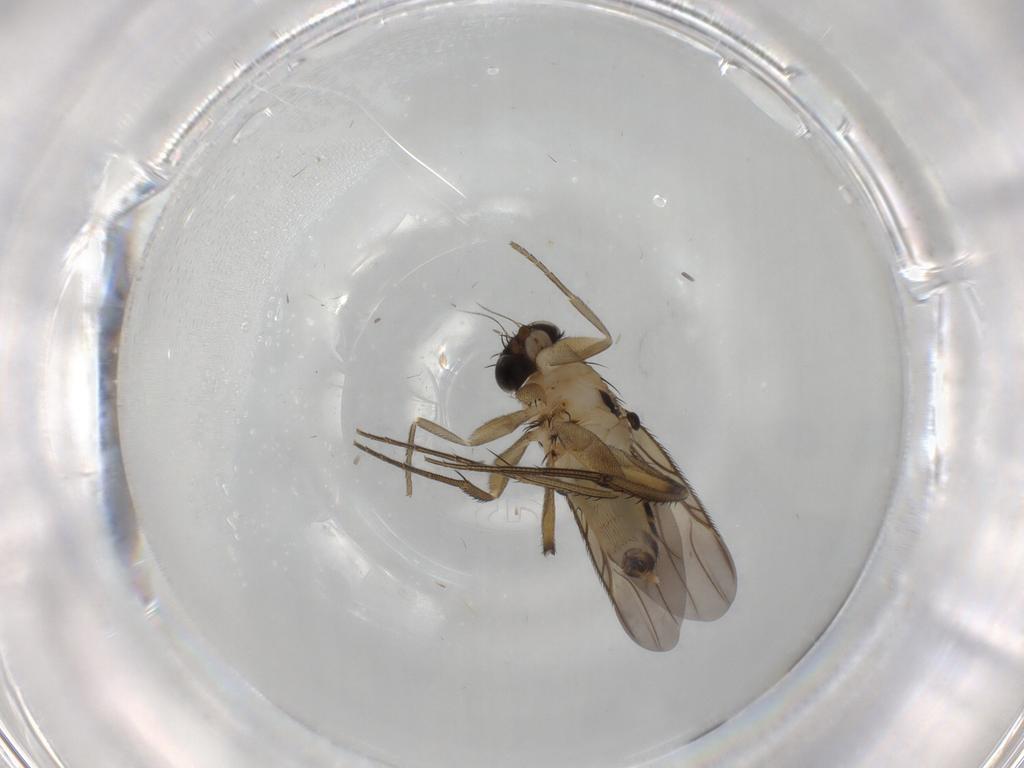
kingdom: Animalia
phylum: Arthropoda
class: Insecta
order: Diptera
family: Phoridae
